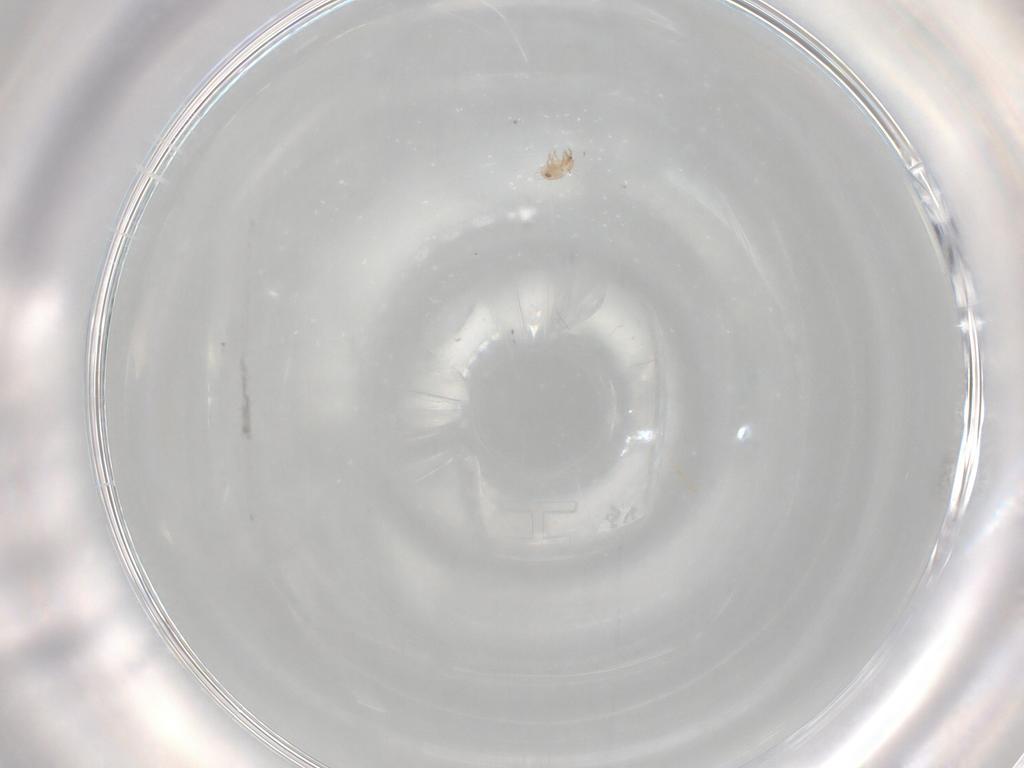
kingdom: Animalia
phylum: Arthropoda
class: Arachnida
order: Sarcoptiformes
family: Humerobatidae
